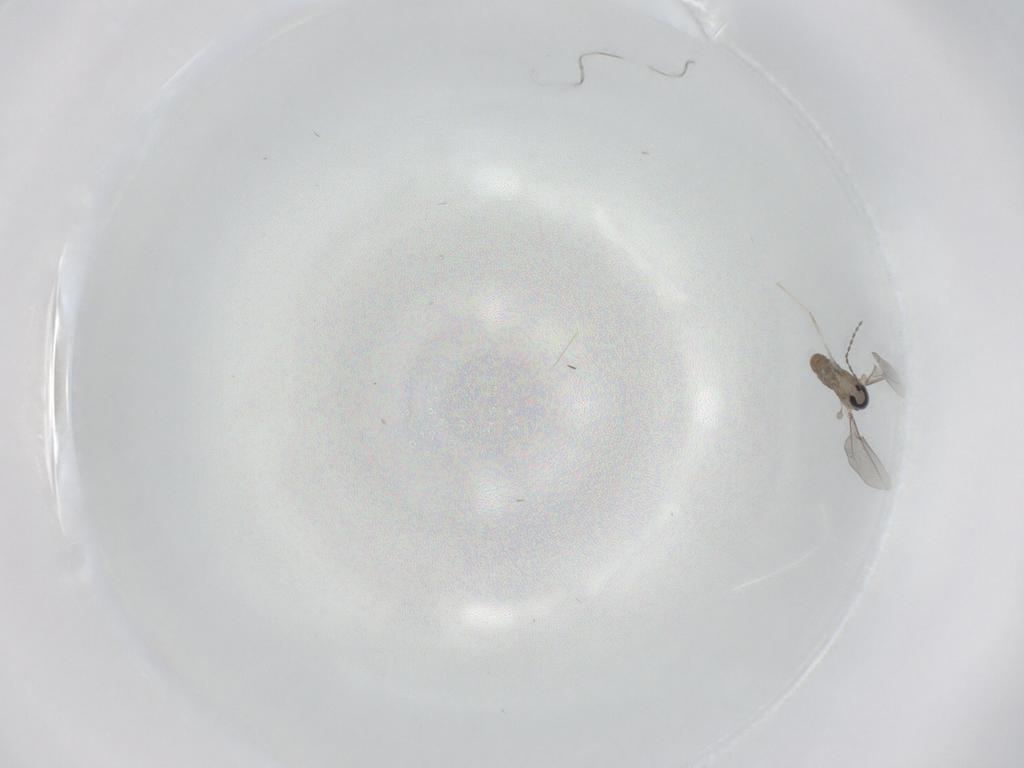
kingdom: Animalia
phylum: Arthropoda
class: Insecta
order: Diptera
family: Cecidomyiidae
